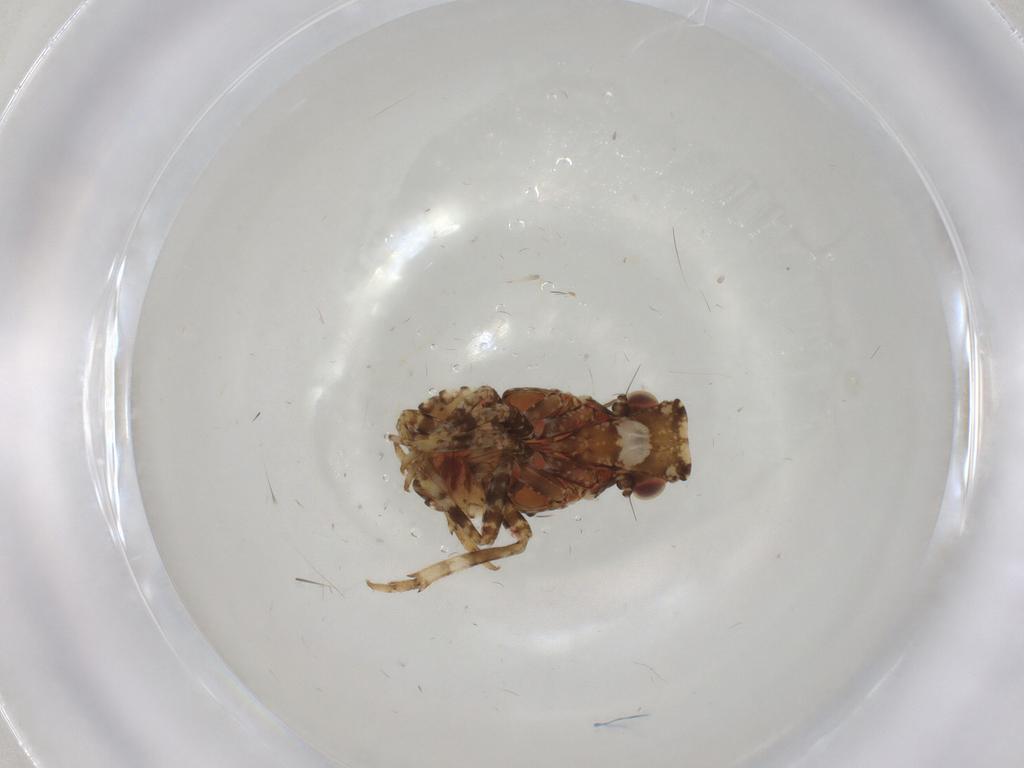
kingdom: Animalia
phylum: Arthropoda
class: Insecta
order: Hemiptera
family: Fulgoridae
